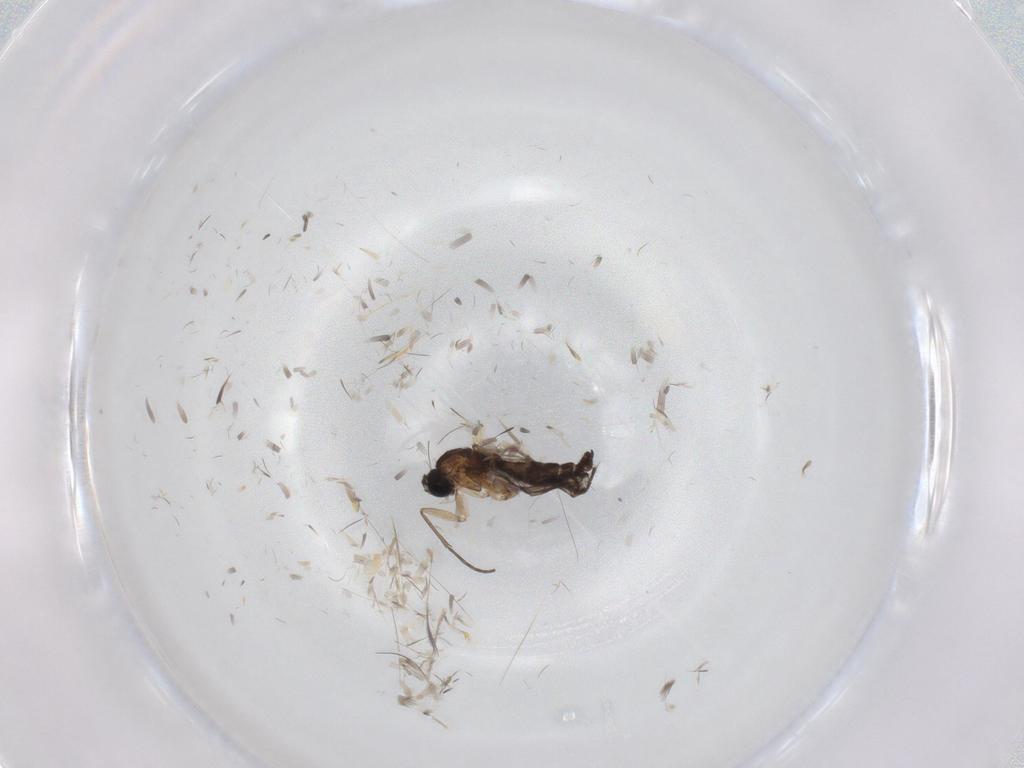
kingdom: Animalia
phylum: Arthropoda
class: Insecta
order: Diptera
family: Sciaridae
